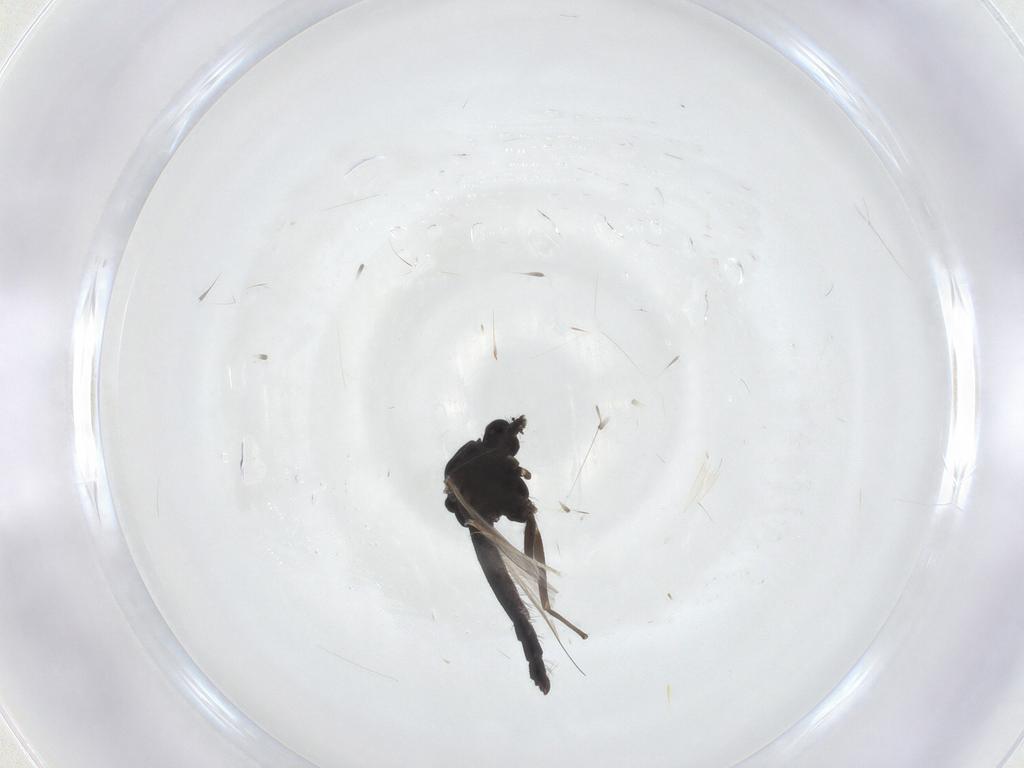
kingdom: Animalia
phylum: Arthropoda
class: Insecta
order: Diptera
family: Chironomidae
